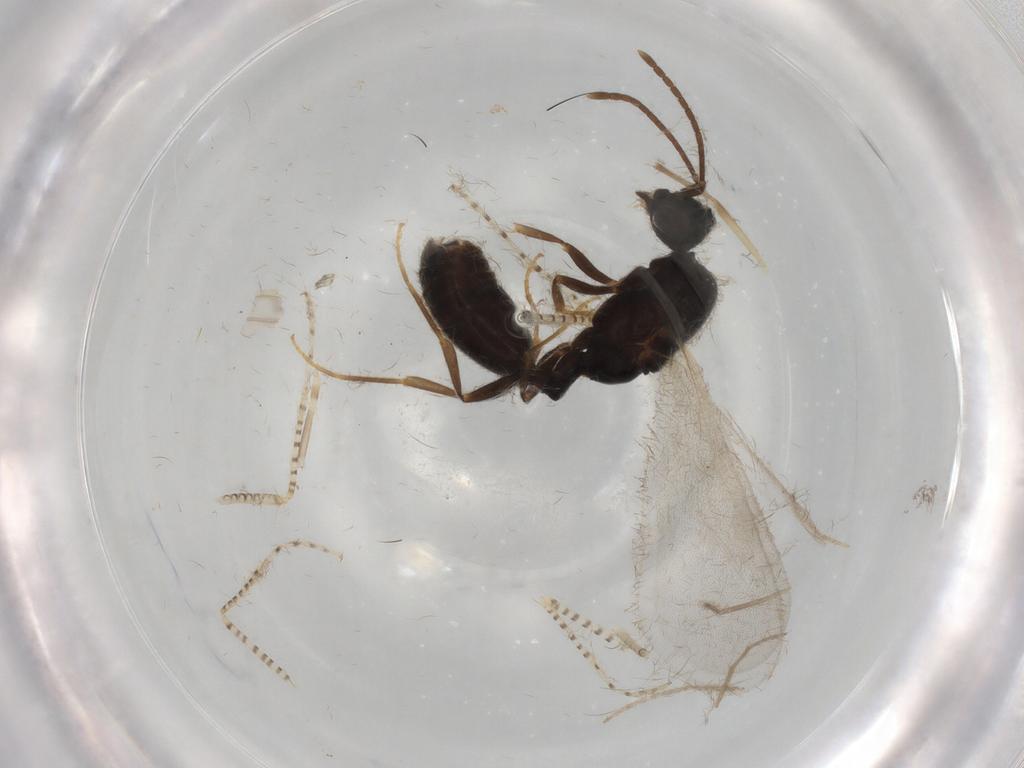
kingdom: Animalia
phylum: Arthropoda
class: Insecta
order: Hymenoptera
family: Formicidae
